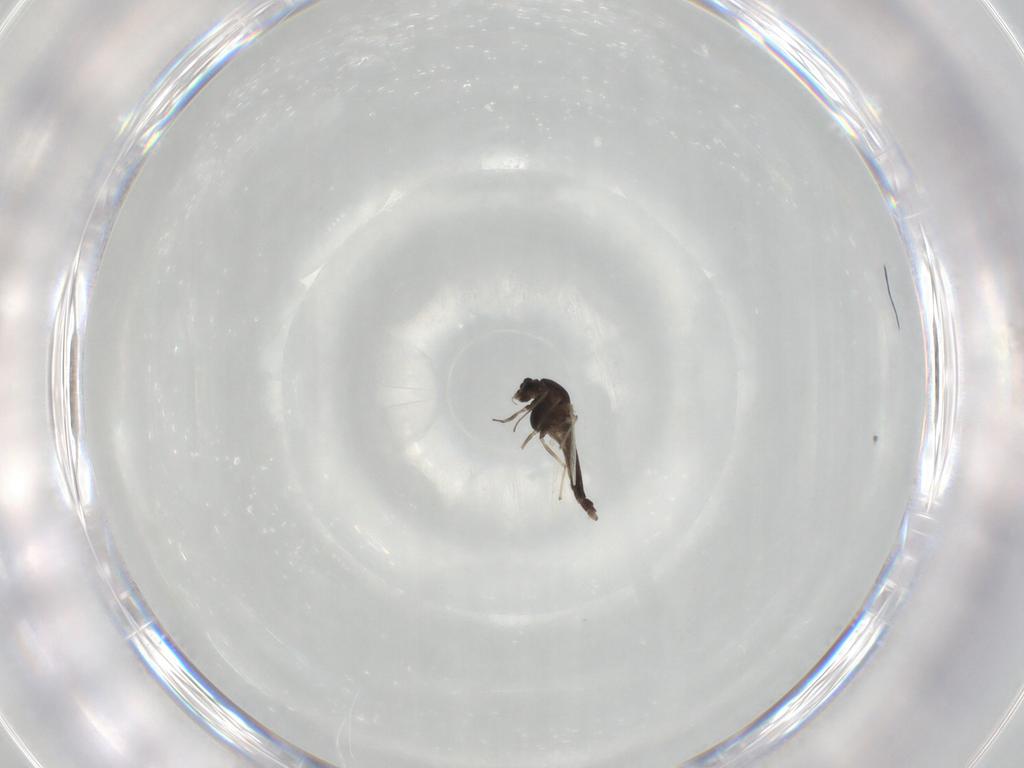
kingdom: Animalia
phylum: Arthropoda
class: Insecta
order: Diptera
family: Chironomidae
